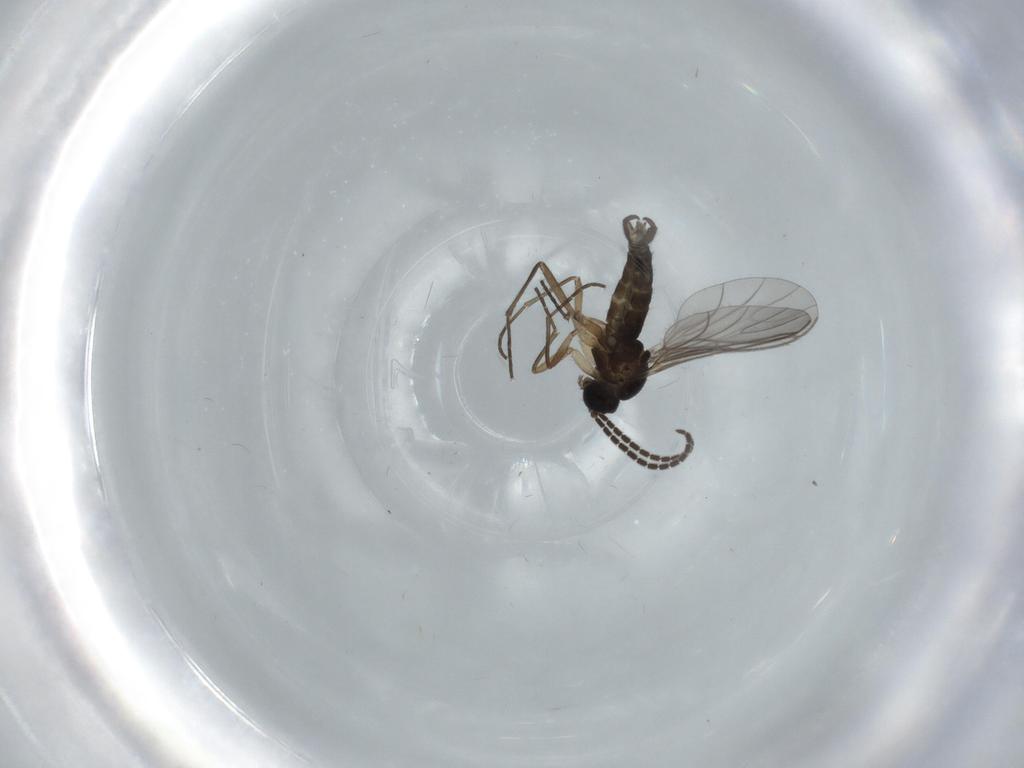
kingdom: Animalia
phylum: Arthropoda
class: Insecta
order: Diptera
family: Sciaridae
